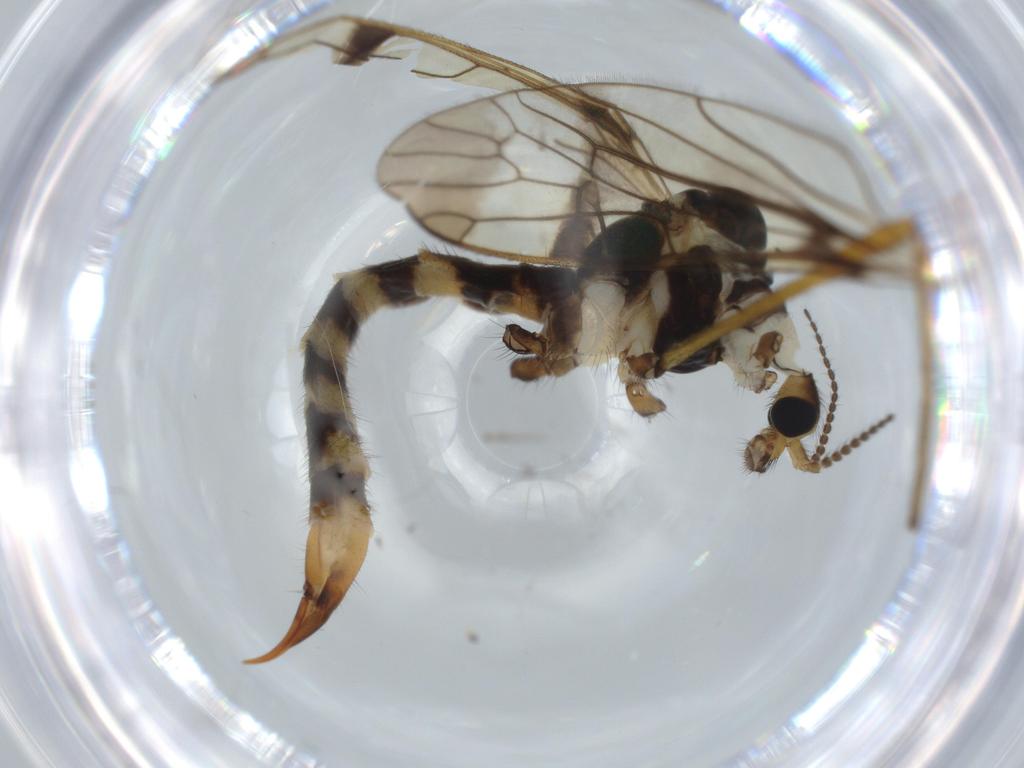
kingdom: Animalia
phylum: Arthropoda
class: Insecta
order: Diptera
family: Limoniidae
